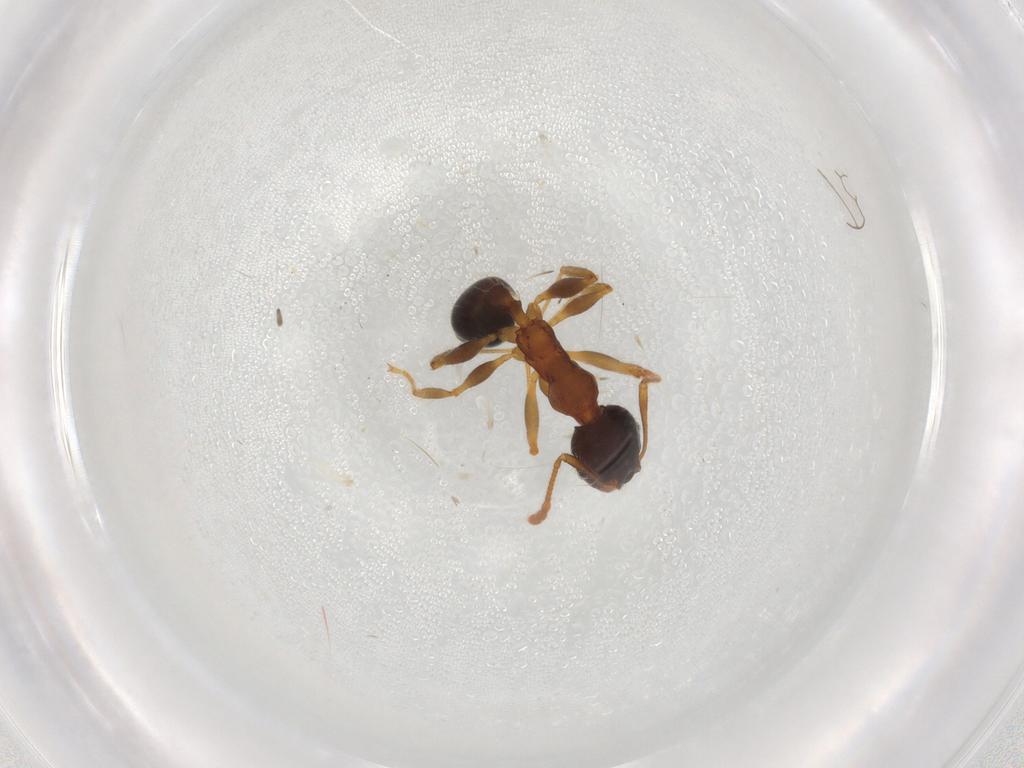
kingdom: Animalia
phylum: Arthropoda
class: Insecta
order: Hymenoptera
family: Formicidae
